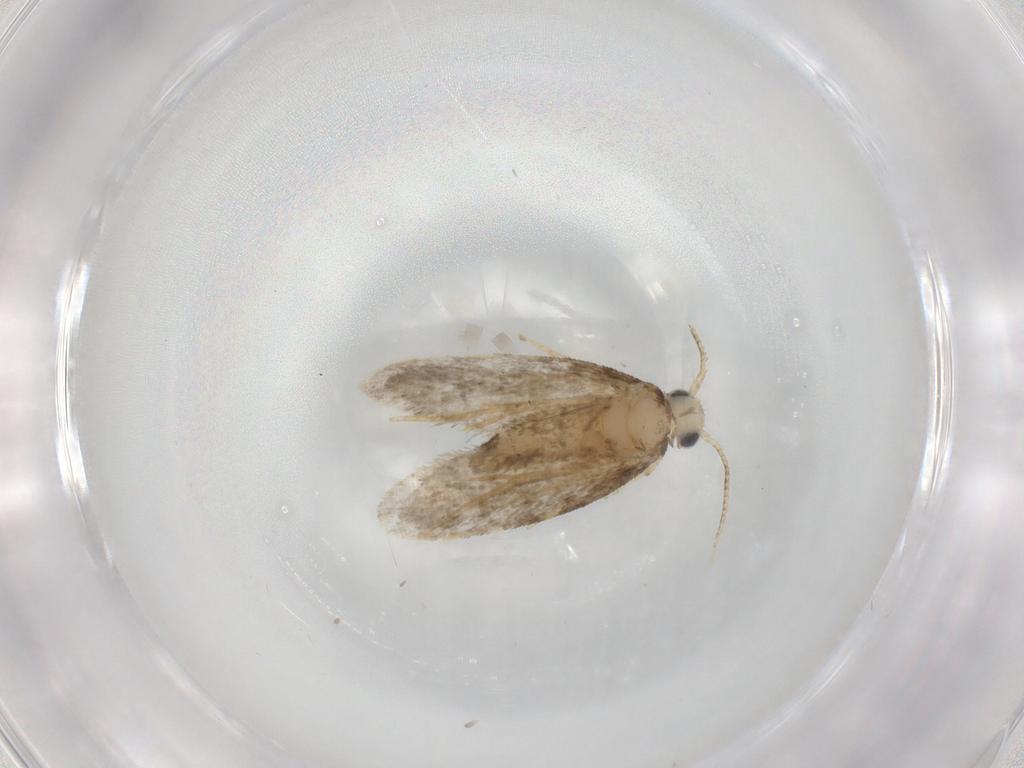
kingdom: Animalia
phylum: Arthropoda
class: Insecta
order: Lepidoptera
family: Psychidae
